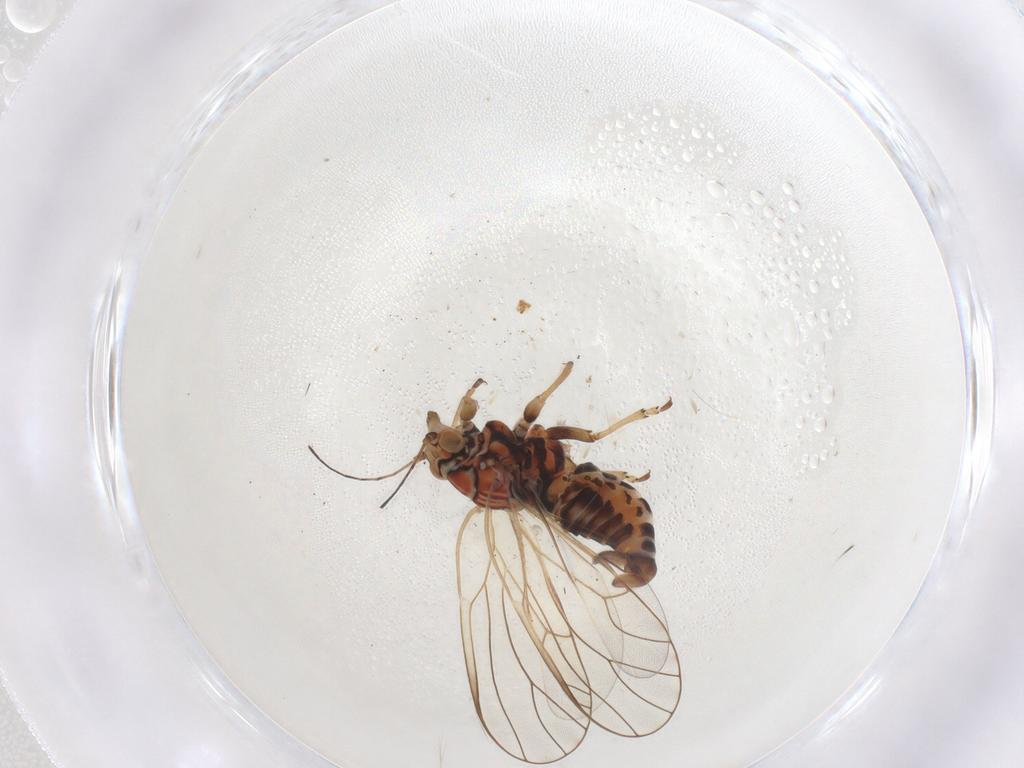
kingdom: Animalia
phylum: Arthropoda
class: Insecta
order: Hemiptera
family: Psyllidae
